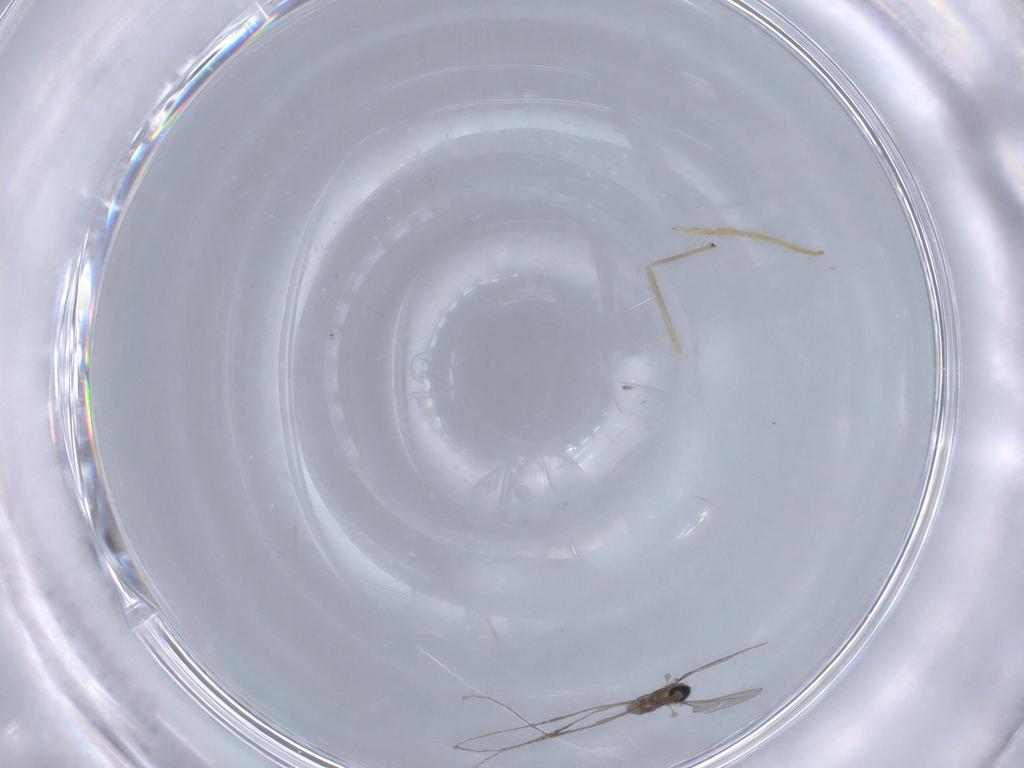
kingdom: Animalia
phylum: Arthropoda
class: Insecta
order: Diptera
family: Cecidomyiidae
